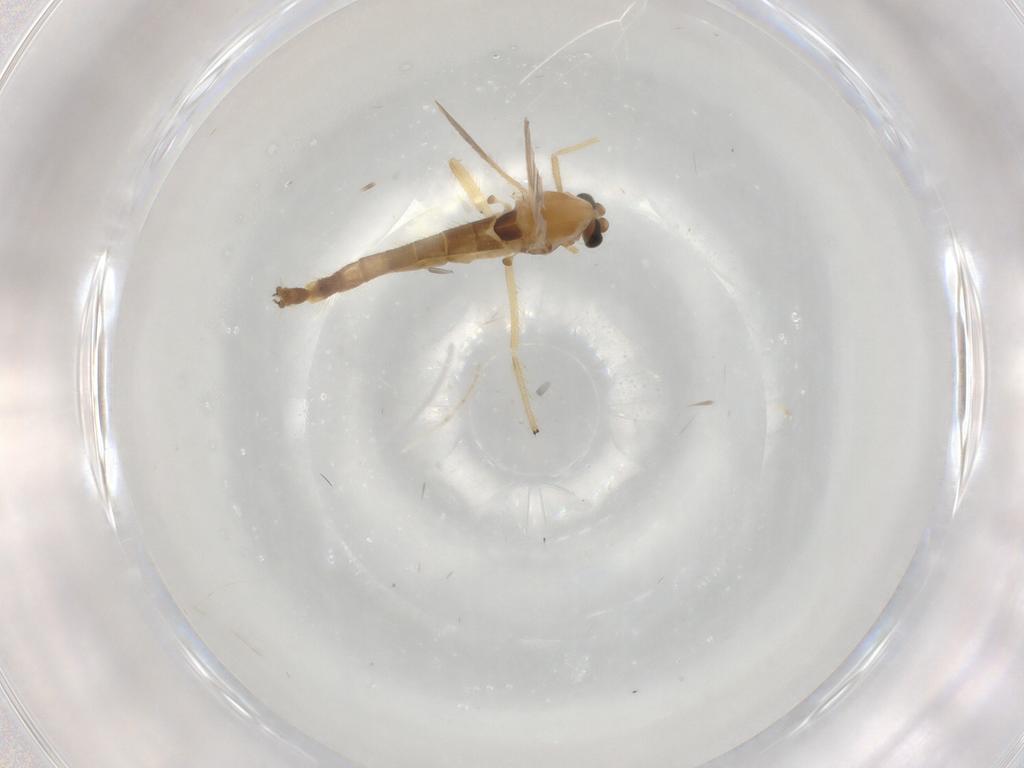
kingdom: Animalia
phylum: Arthropoda
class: Insecta
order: Diptera
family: Chironomidae
